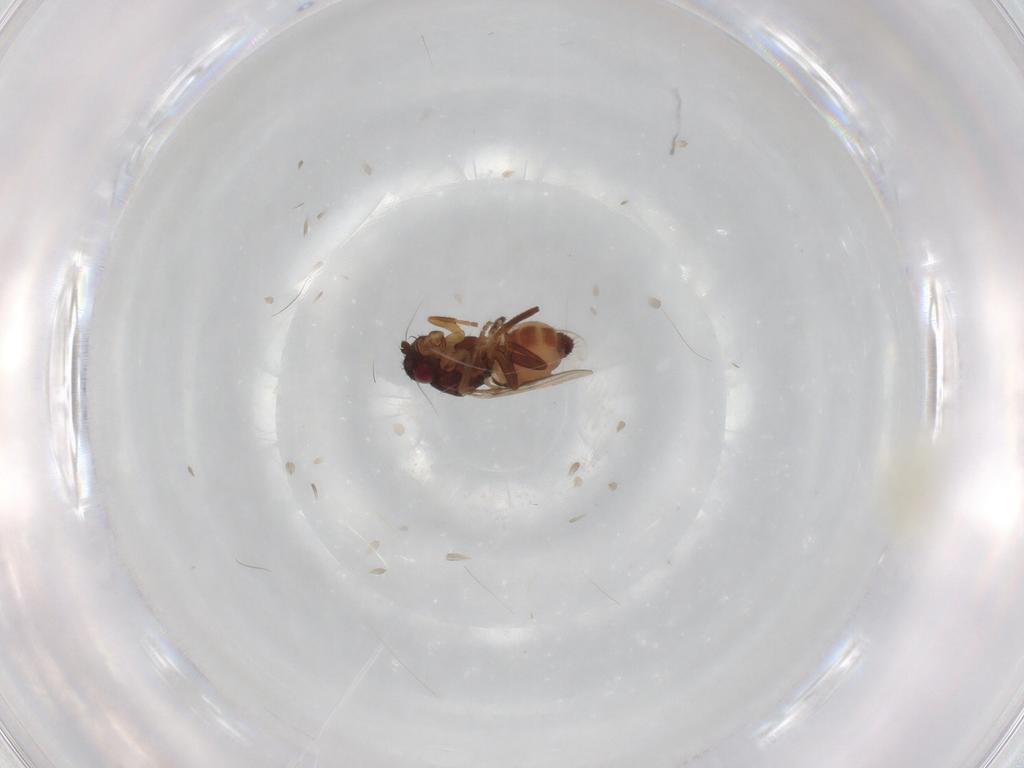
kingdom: Animalia
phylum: Arthropoda
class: Insecta
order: Diptera
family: Sphaeroceridae
